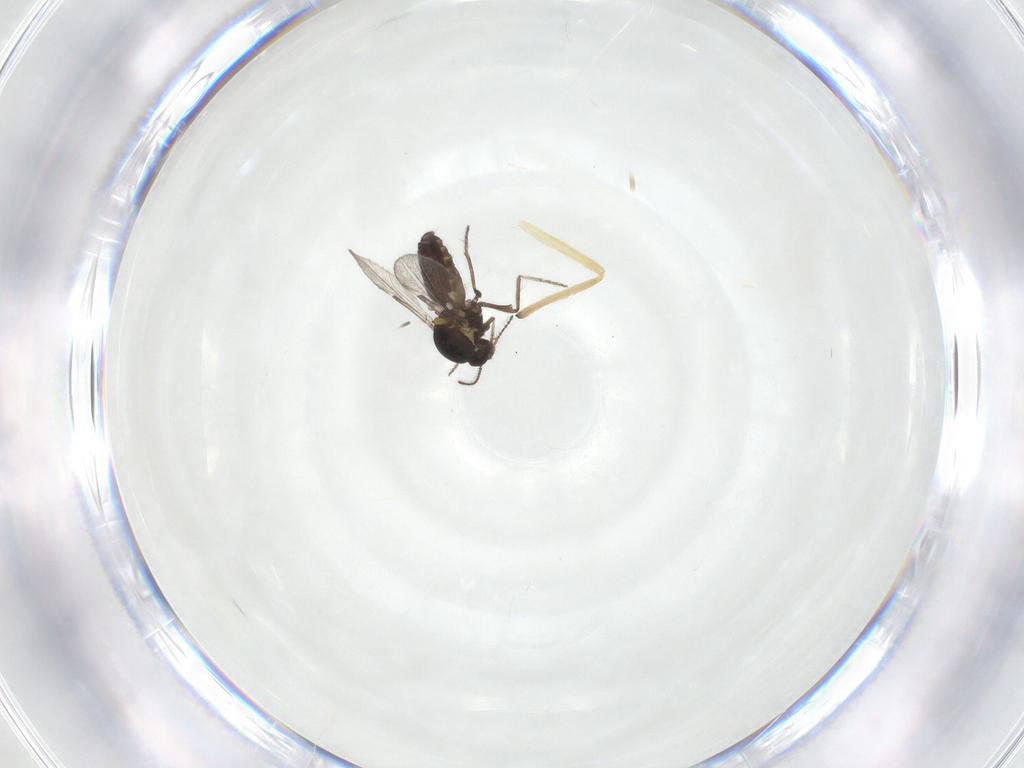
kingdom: Animalia
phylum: Arthropoda
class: Insecta
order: Diptera
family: Ceratopogonidae
